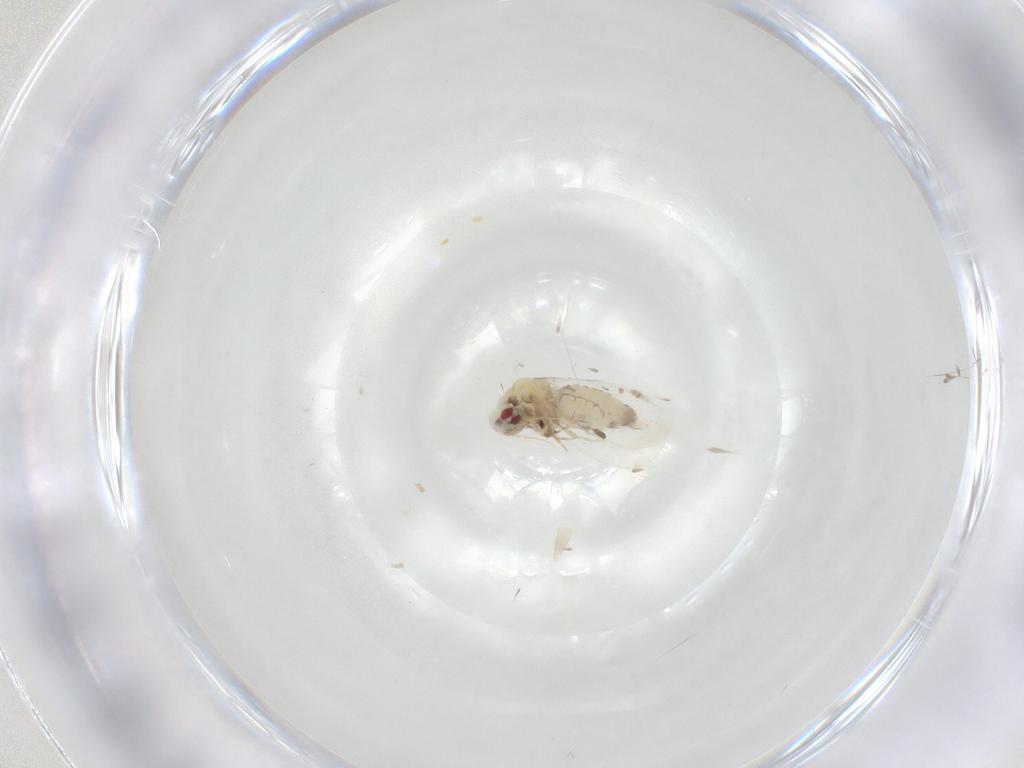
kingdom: Animalia
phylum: Arthropoda
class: Insecta
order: Hemiptera
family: Aleyrodidae
